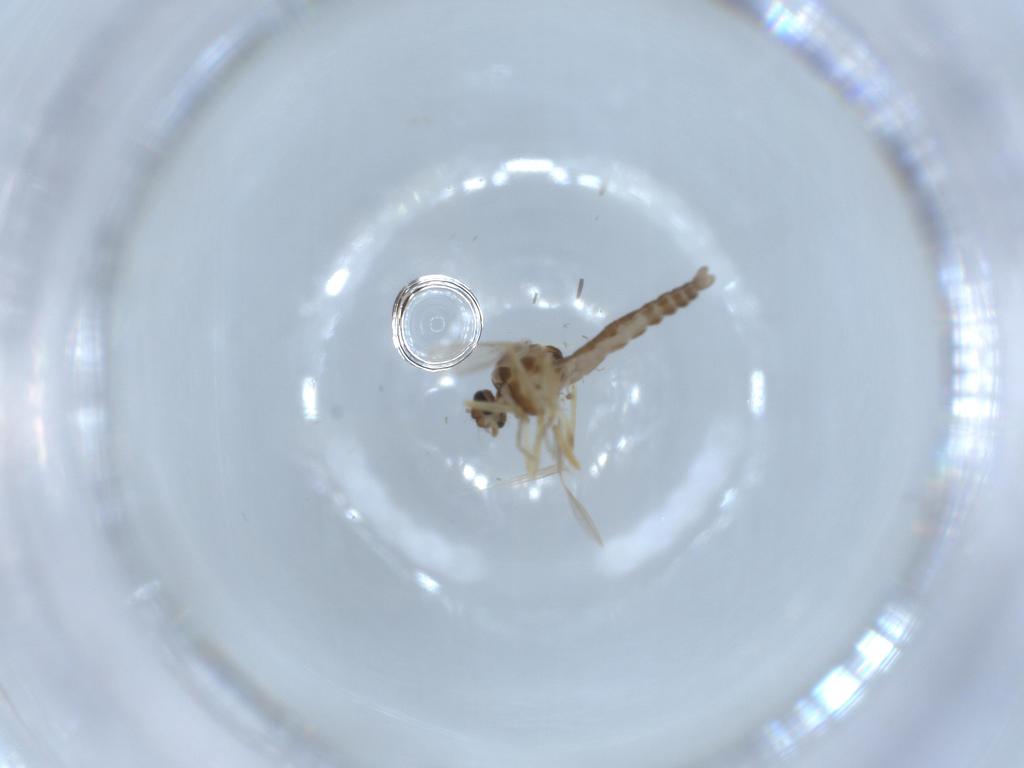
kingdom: Animalia
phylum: Arthropoda
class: Insecta
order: Diptera
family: Ceratopogonidae
